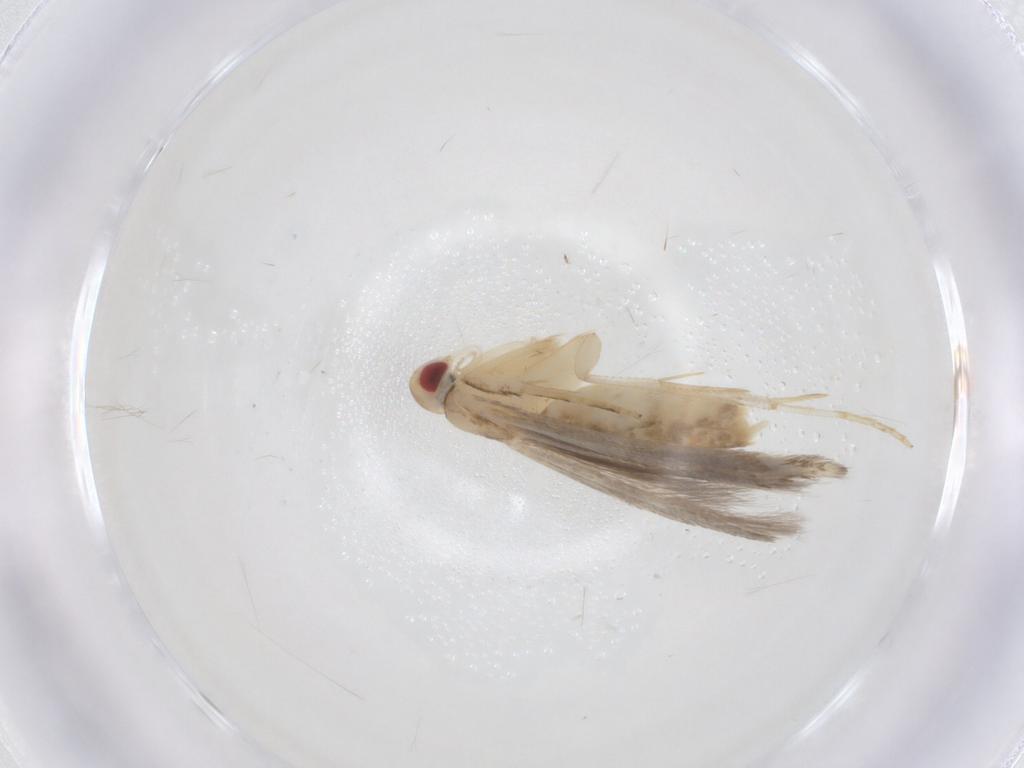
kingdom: Animalia
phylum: Arthropoda
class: Insecta
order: Lepidoptera
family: Cosmopterigidae
